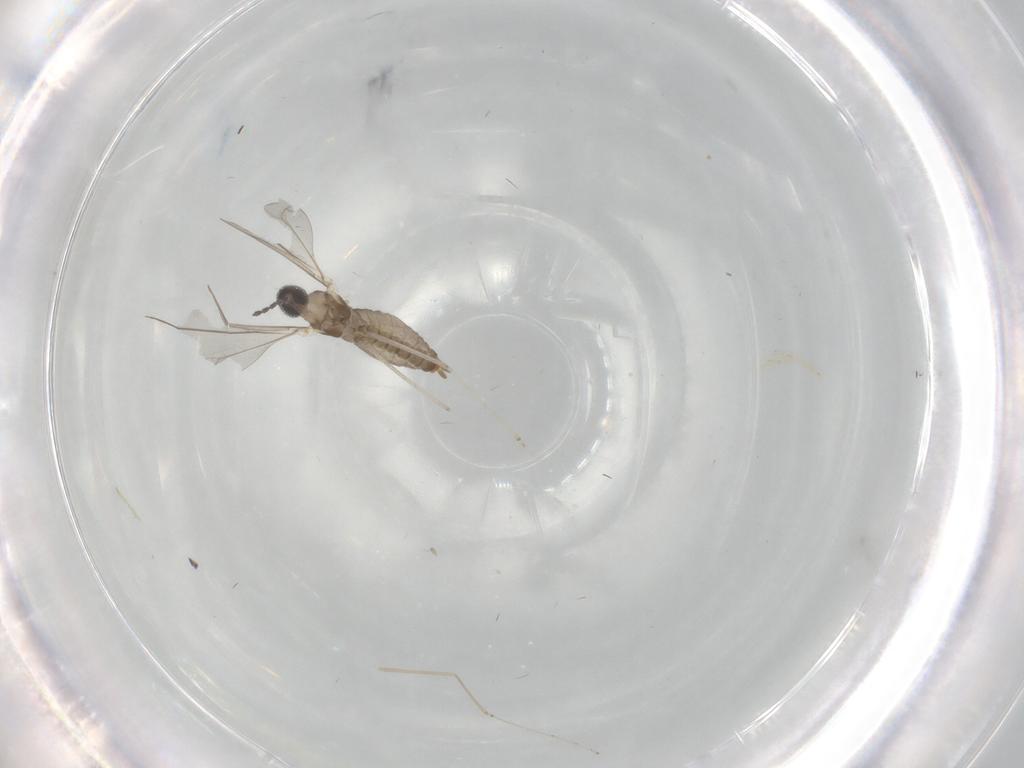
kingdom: Animalia
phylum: Arthropoda
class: Insecta
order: Diptera
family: Cecidomyiidae
